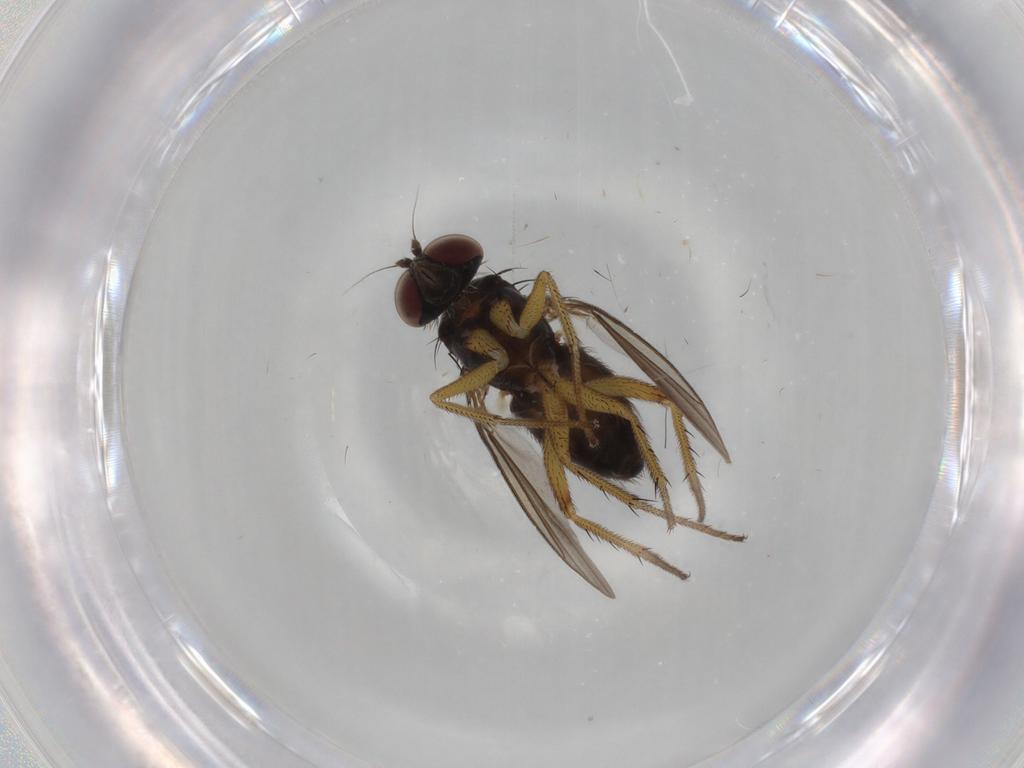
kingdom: Animalia
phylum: Arthropoda
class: Insecta
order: Diptera
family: Dolichopodidae
